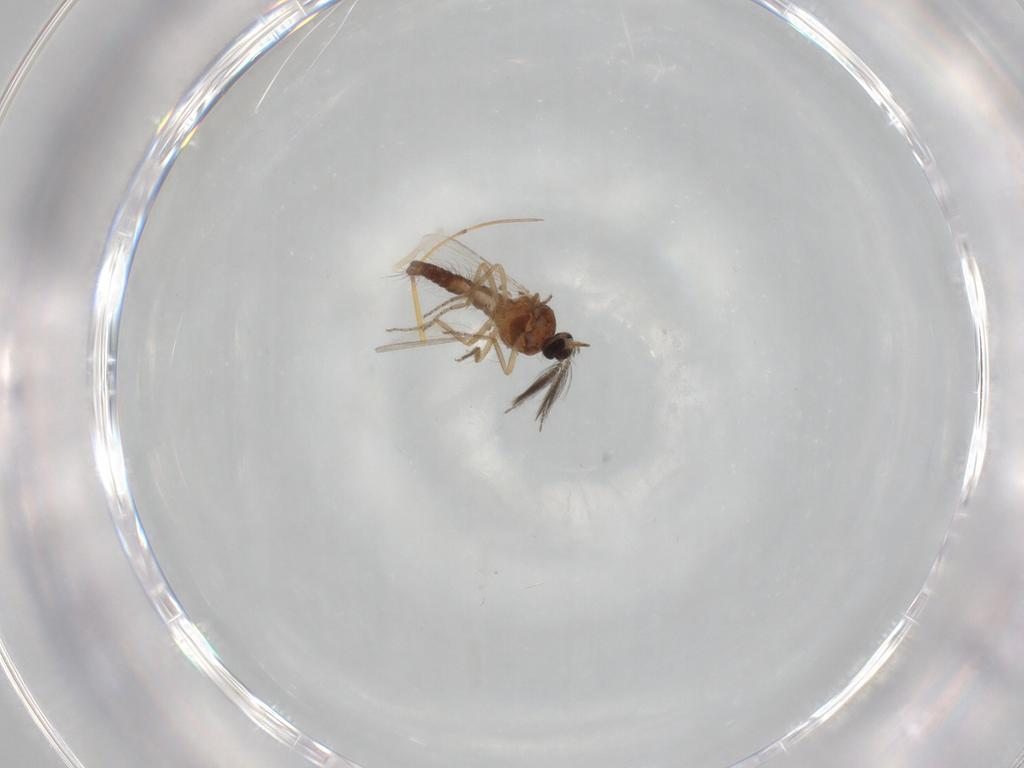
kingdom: Animalia
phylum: Arthropoda
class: Insecta
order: Diptera
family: Ceratopogonidae
